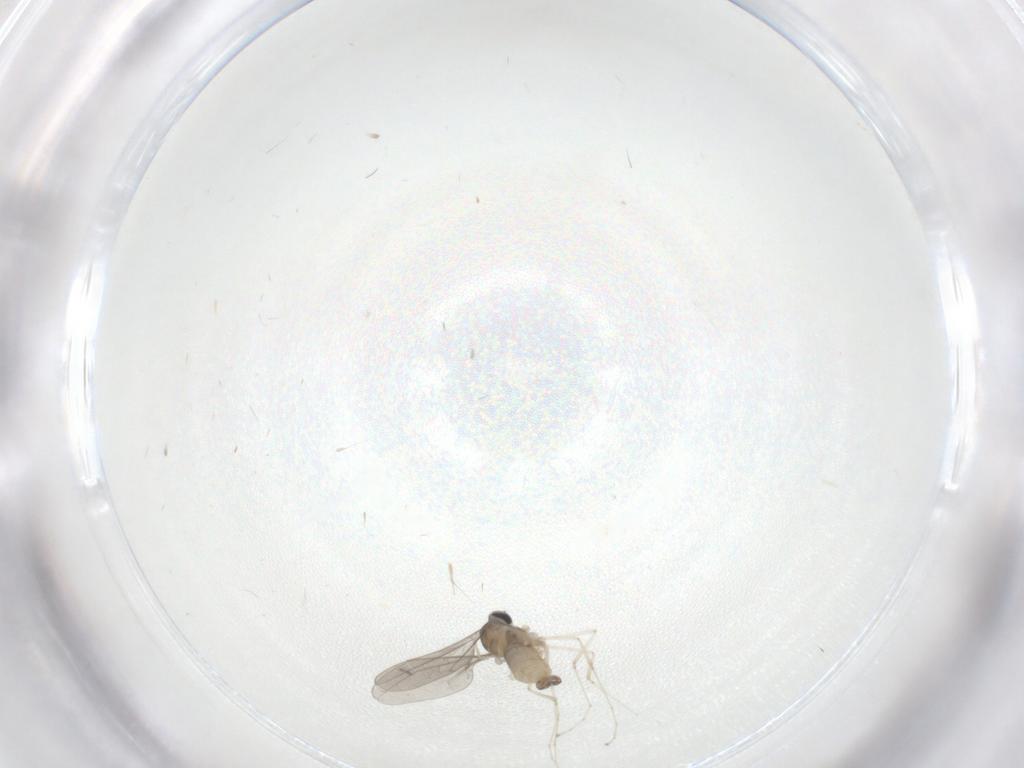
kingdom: Animalia
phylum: Arthropoda
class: Insecta
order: Diptera
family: Cecidomyiidae
